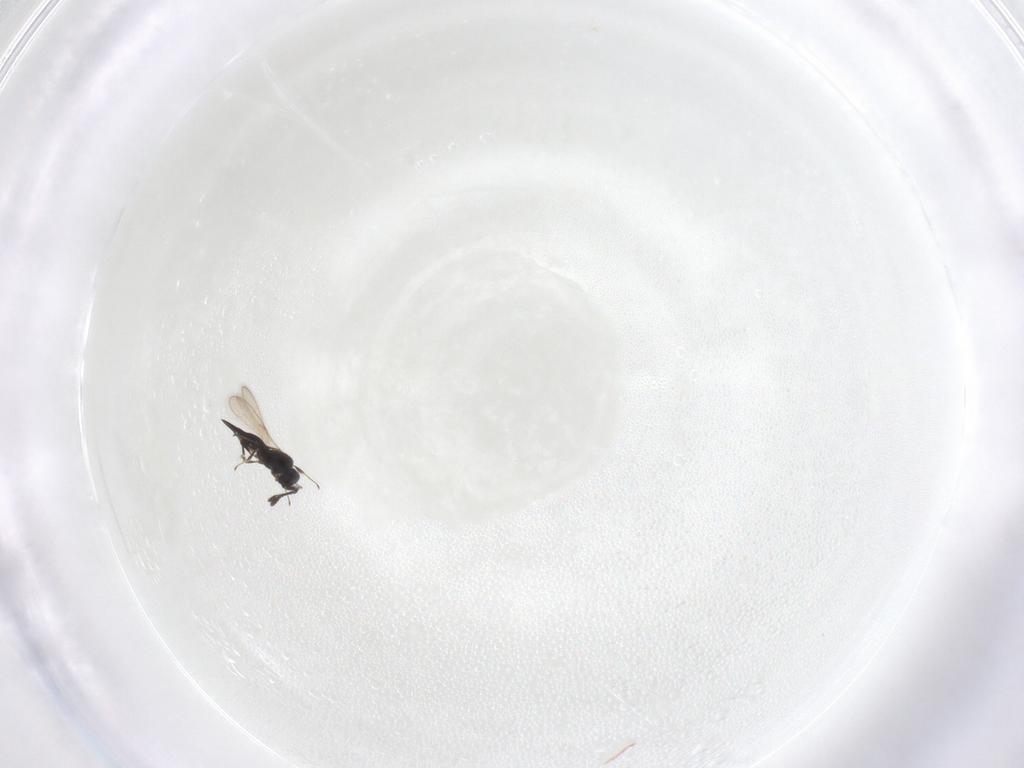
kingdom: Animalia
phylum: Arthropoda
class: Insecta
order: Hymenoptera
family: Scelionidae
